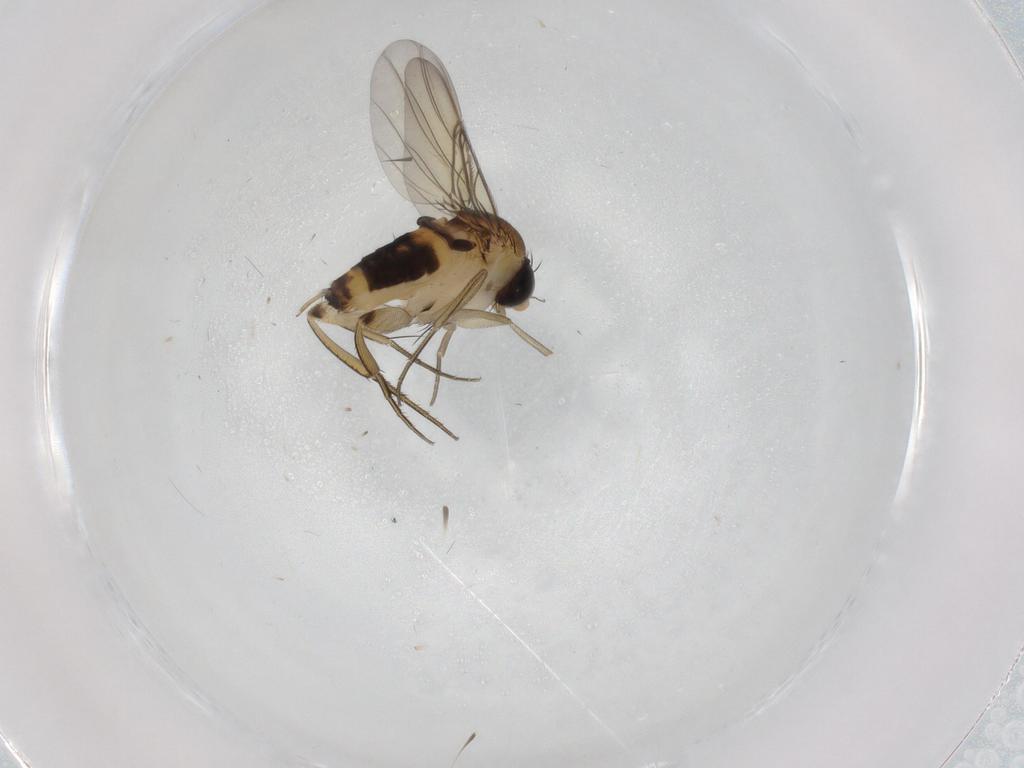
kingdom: Animalia
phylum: Arthropoda
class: Insecta
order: Diptera
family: Phoridae
